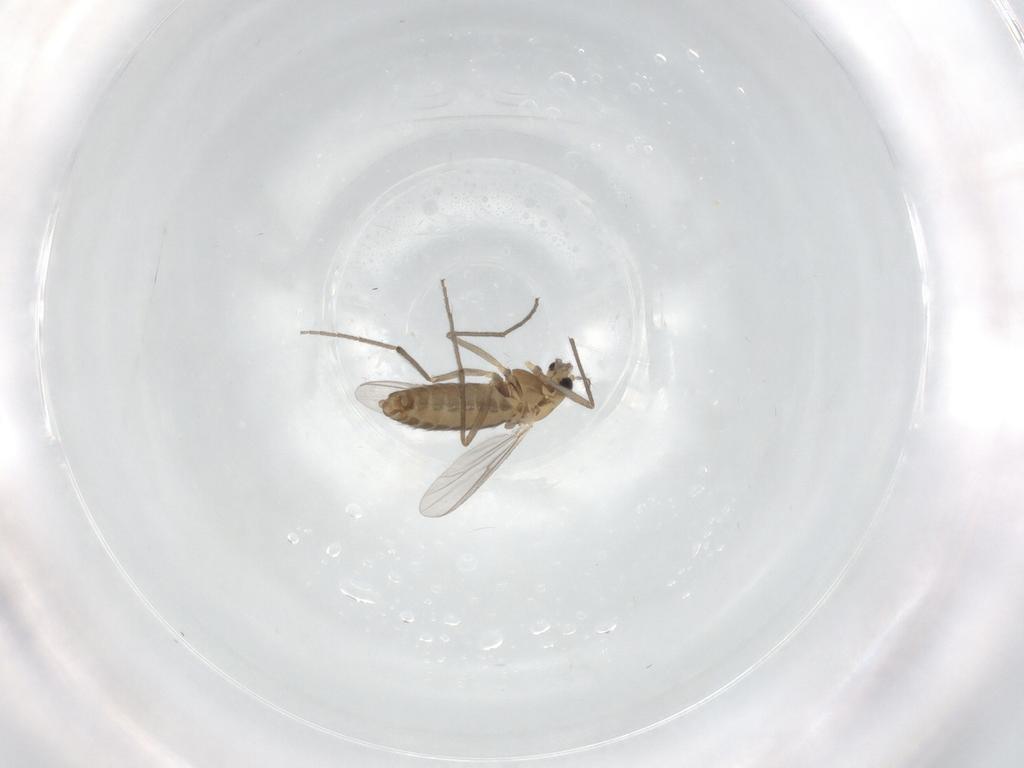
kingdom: Animalia
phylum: Arthropoda
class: Insecta
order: Diptera
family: Chironomidae
